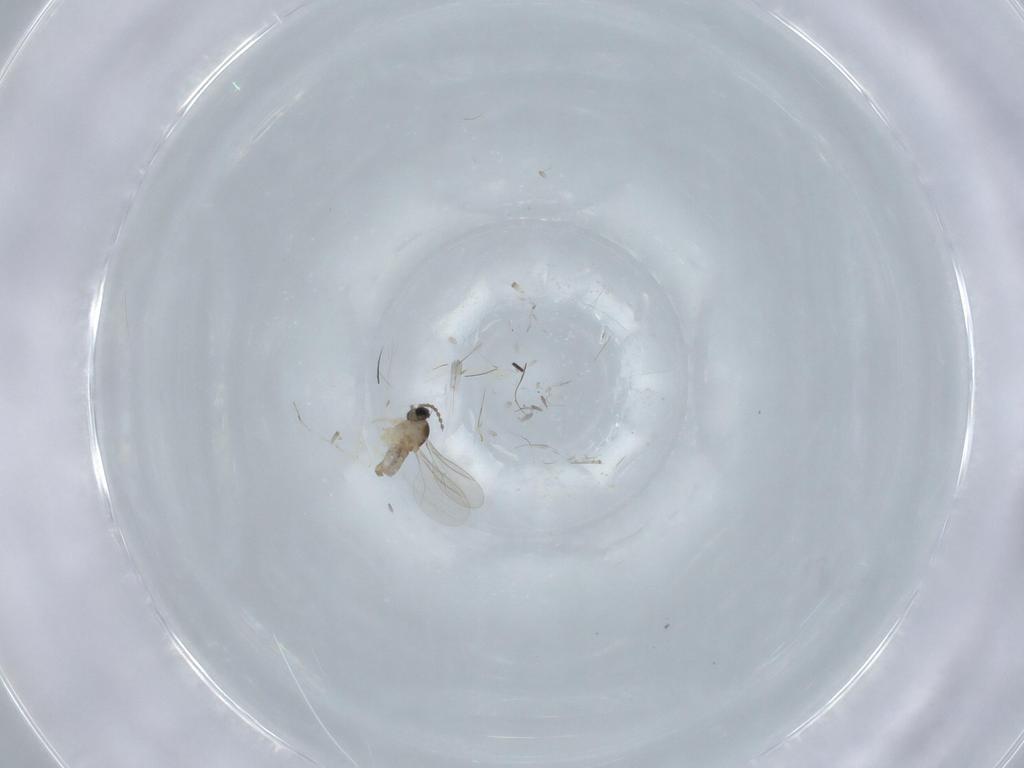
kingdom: Animalia
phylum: Arthropoda
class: Insecta
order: Diptera
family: Cecidomyiidae
